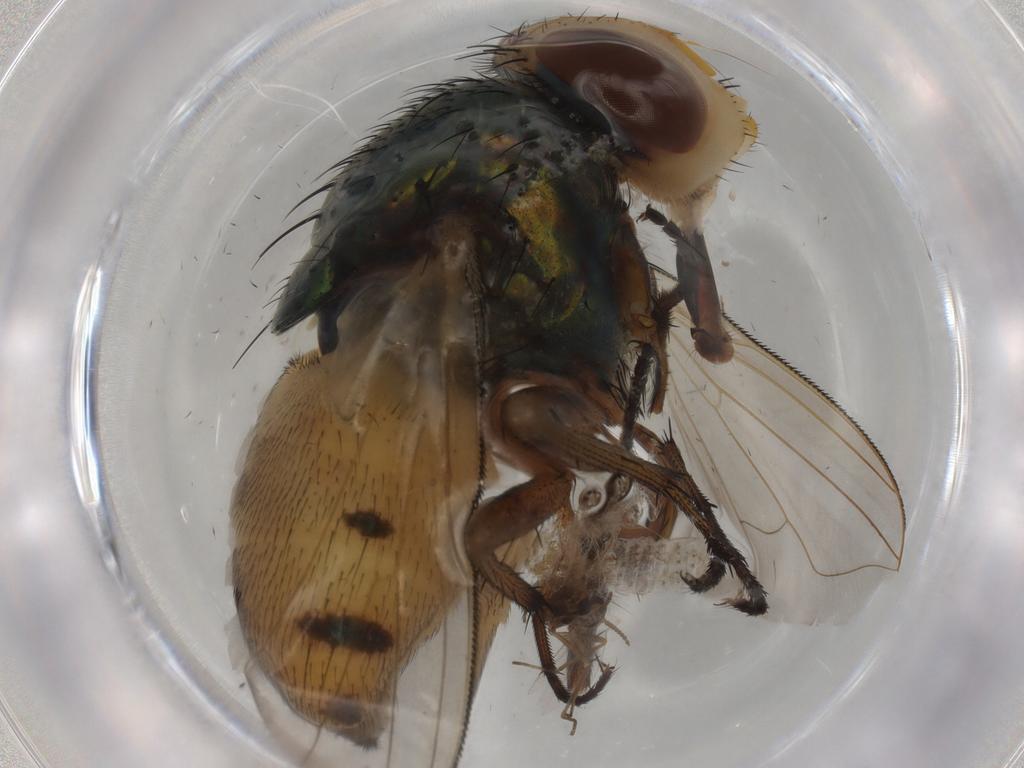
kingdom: Animalia
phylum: Arthropoda
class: Insecta
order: Diptera
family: Calliphoridae
